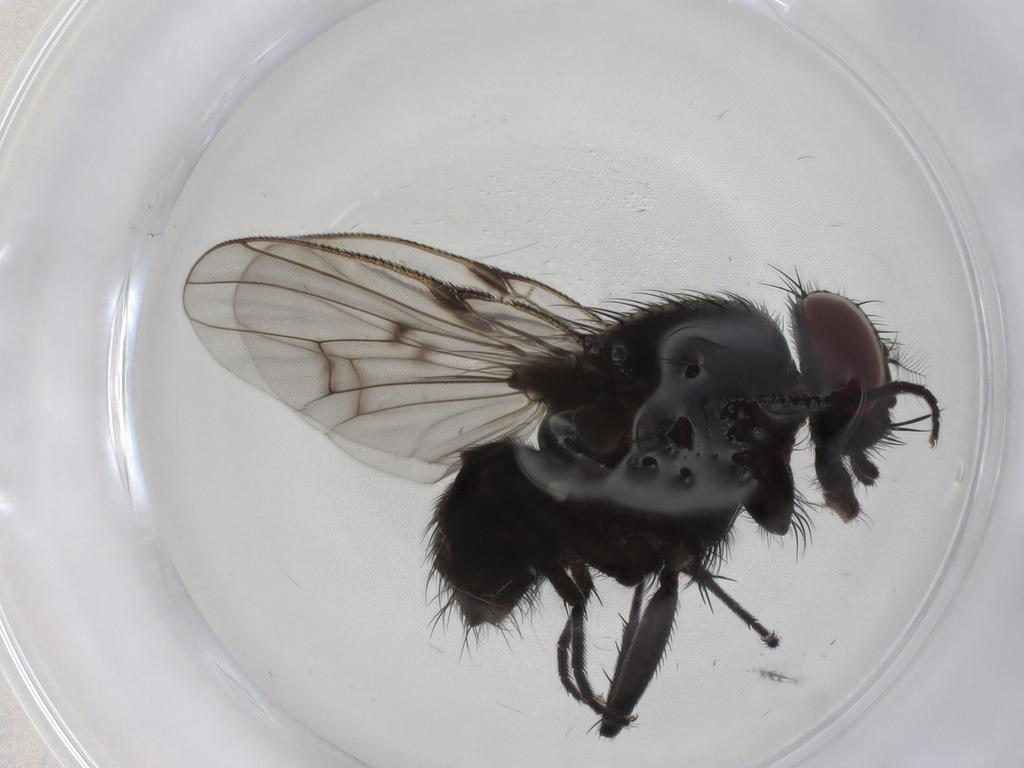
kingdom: Animalia
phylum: Arthropoda
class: Insecta
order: Diptera
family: Muscidae
